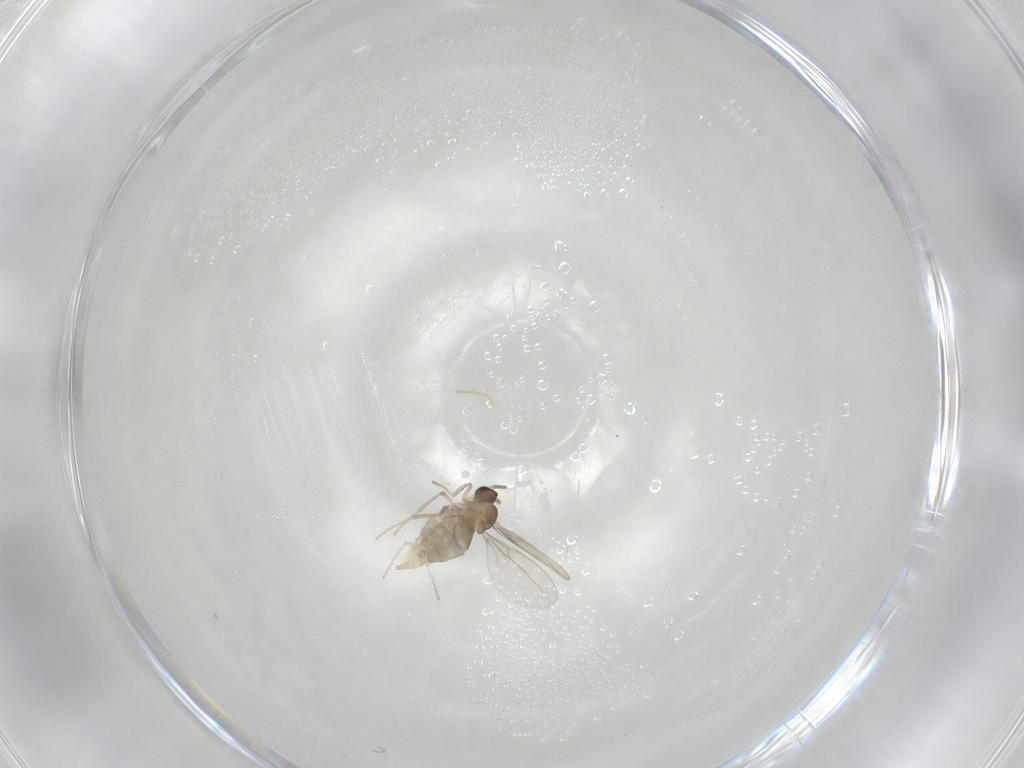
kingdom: Animalia
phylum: Arthropoda
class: Insecta
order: Diptera
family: Cecidomyiidae
